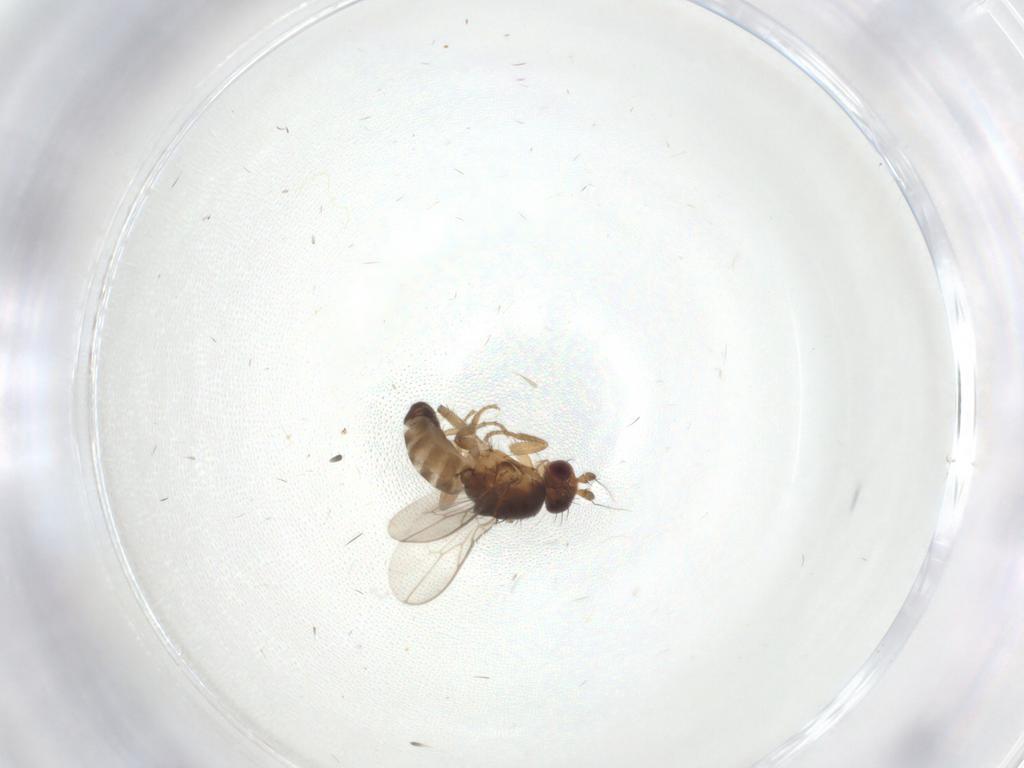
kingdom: Animalia
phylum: Arthropoda
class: Insecta
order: Diptera
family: Sphaeroceridae
